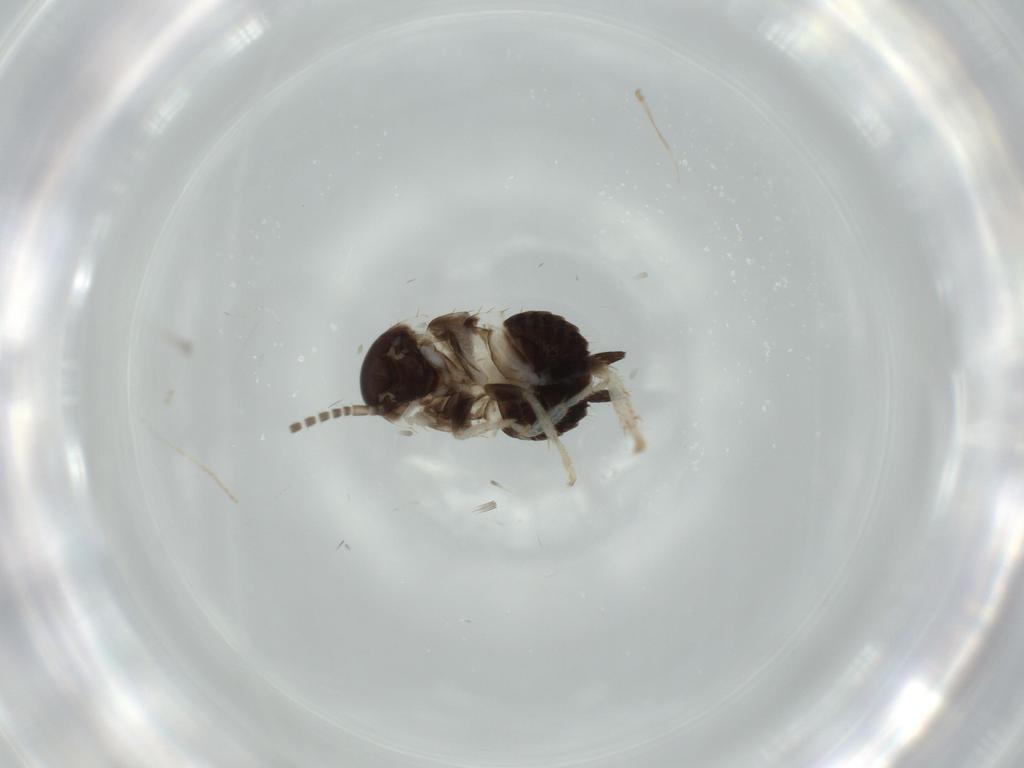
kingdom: Animalia
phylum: Arthropoda
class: Insecta
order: Blattodea
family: Ectobiidae
